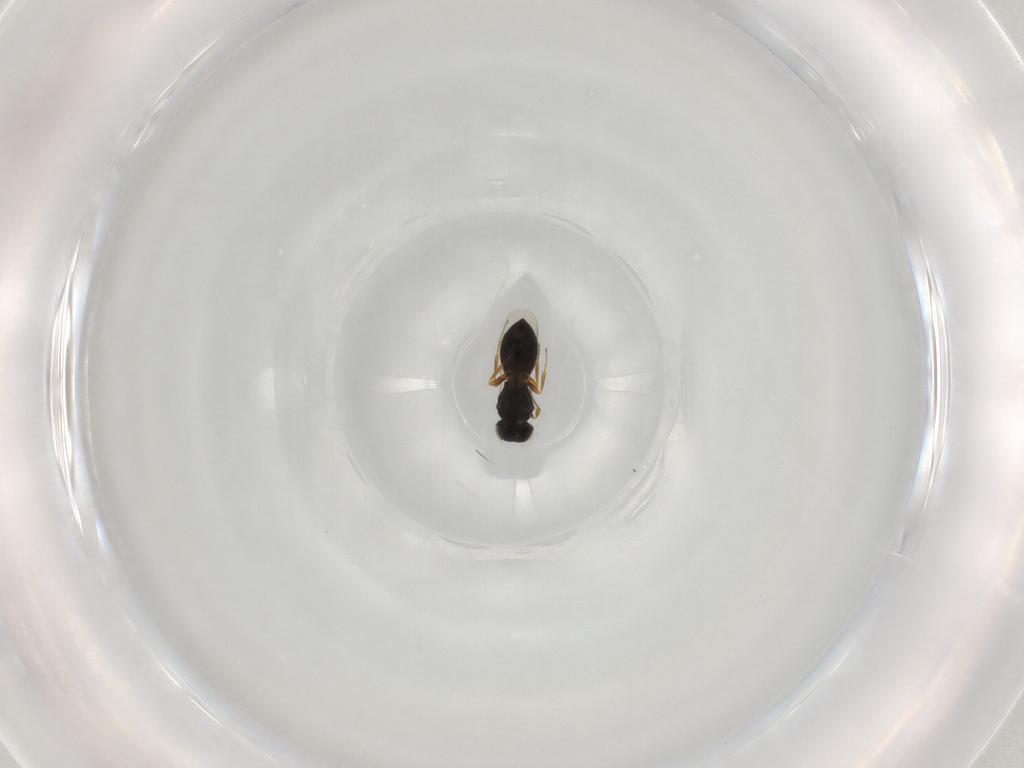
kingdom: Animalia
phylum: Arthropoda
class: Insecta
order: Hymenoptera
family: Scelionidae
